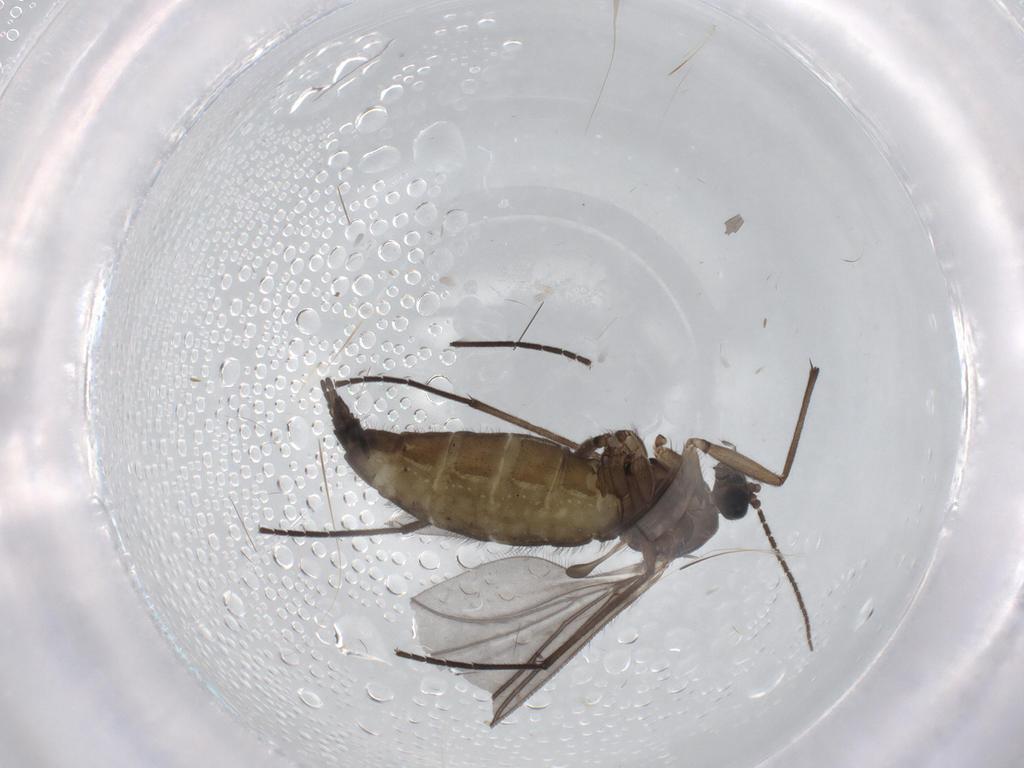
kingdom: Animalia
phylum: Arthropoda
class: Insecta
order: Diptera
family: Sciaridae
